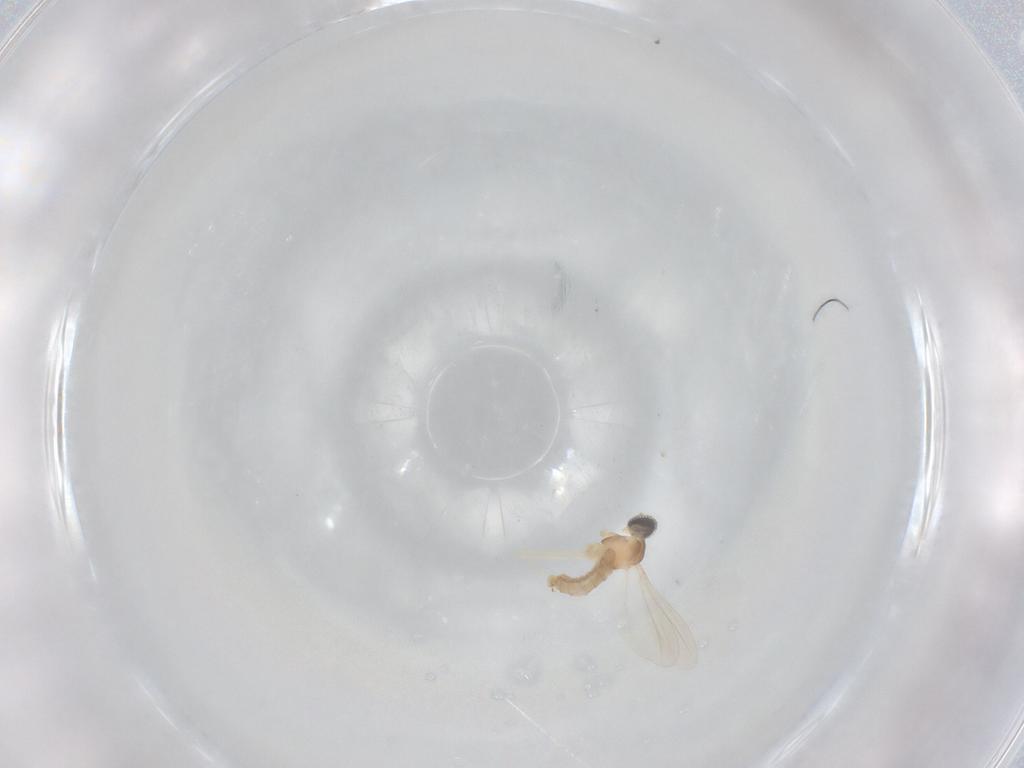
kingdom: Animalia
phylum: Arthropoda
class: Insecta
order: Diptera
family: Cecidomyiidae
